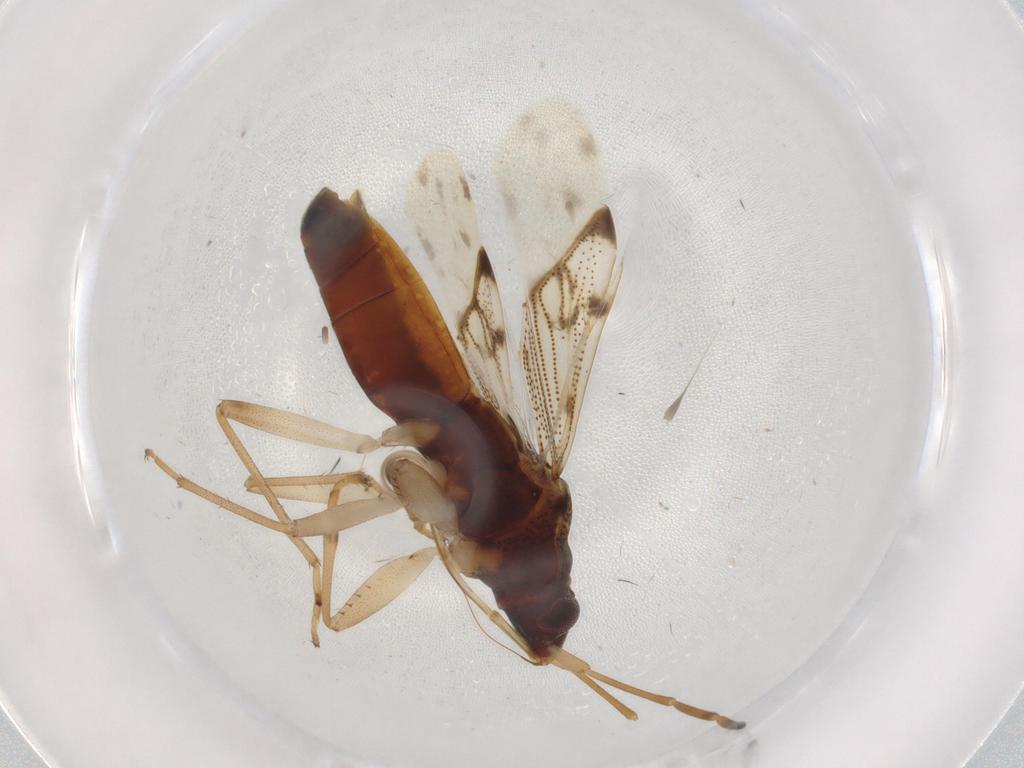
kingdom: Animalia
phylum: Arthropoda
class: Insecta
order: Hemiptera
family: Rhyparochromidae
